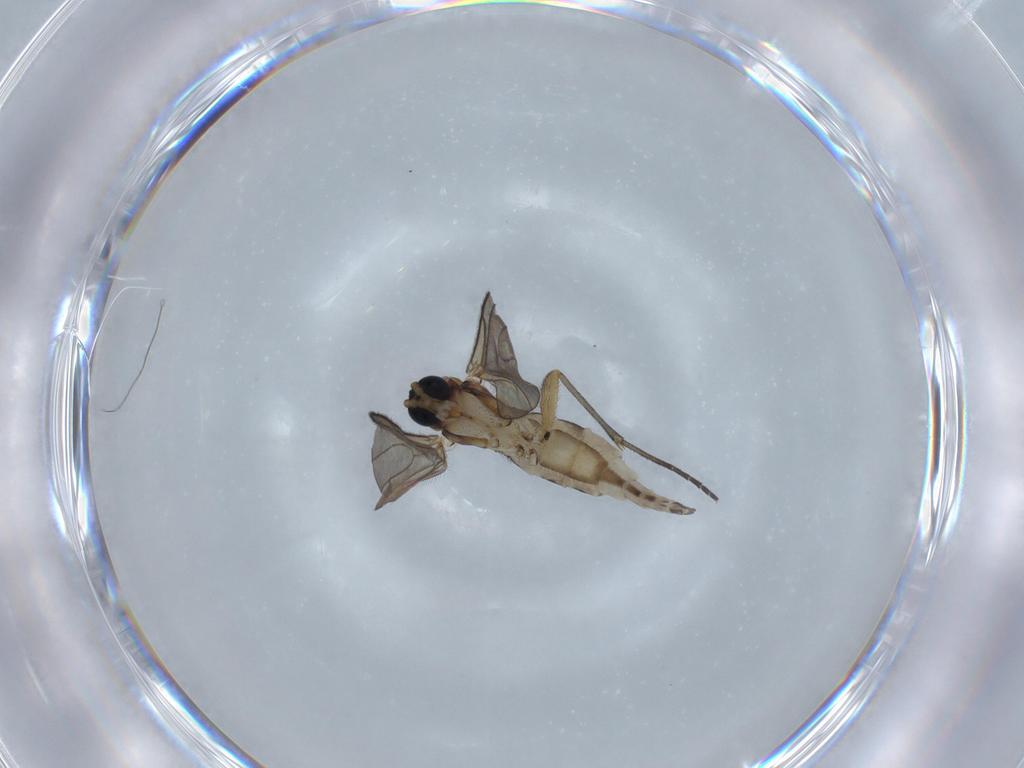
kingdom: Animalia
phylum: Arthropoda
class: Insecta
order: Diptera
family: Sciaridae
